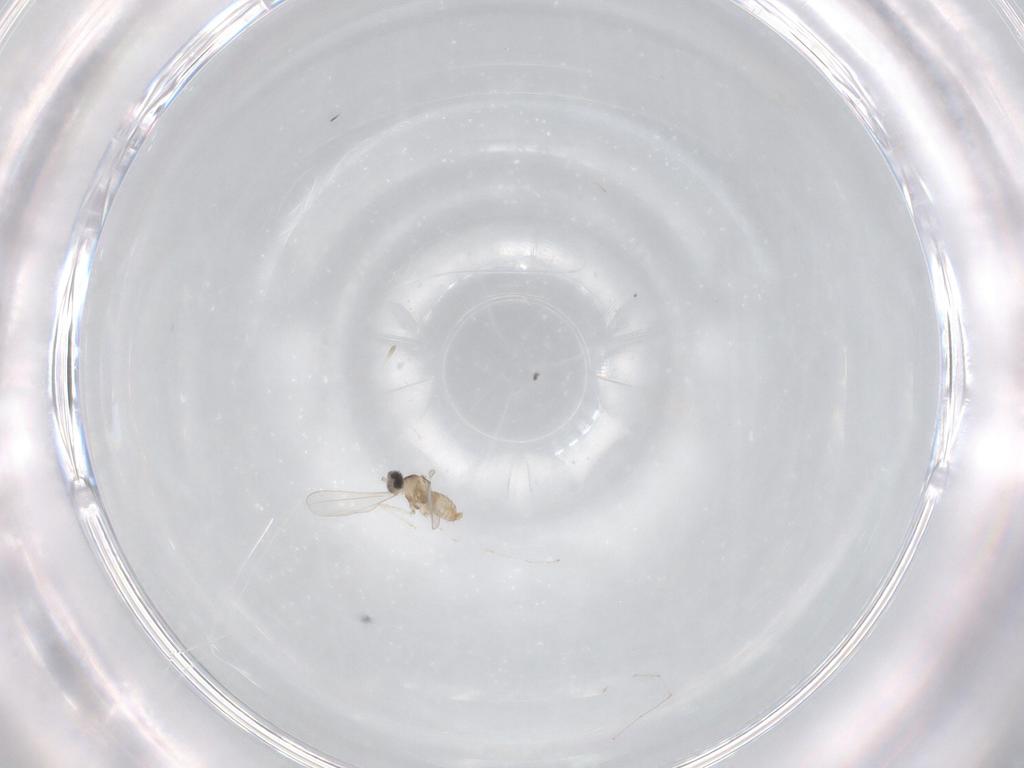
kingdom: Animalia
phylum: Arthropoda
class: Insecta
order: Diptera
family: Cecidomyiidae
